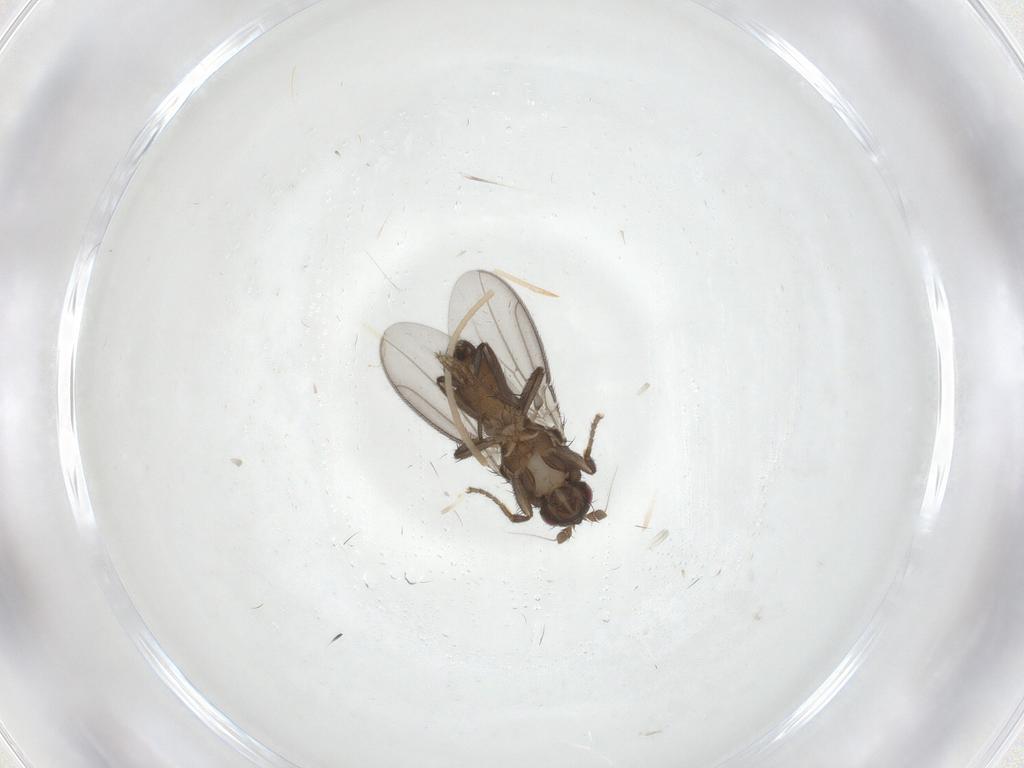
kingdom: Animalia
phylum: Arthropoda
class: Insecta
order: Diptera
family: Sphaeroceridae
